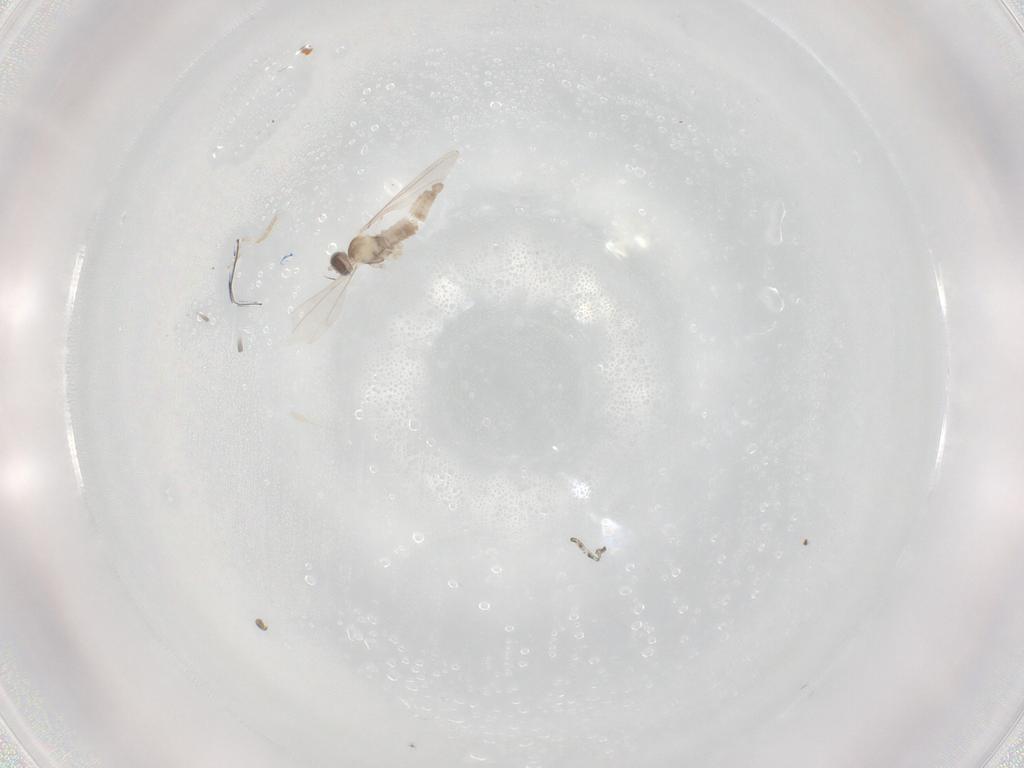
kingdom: Animalia
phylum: Arthropoda
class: Insecta
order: Diptera
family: Limoniidae
